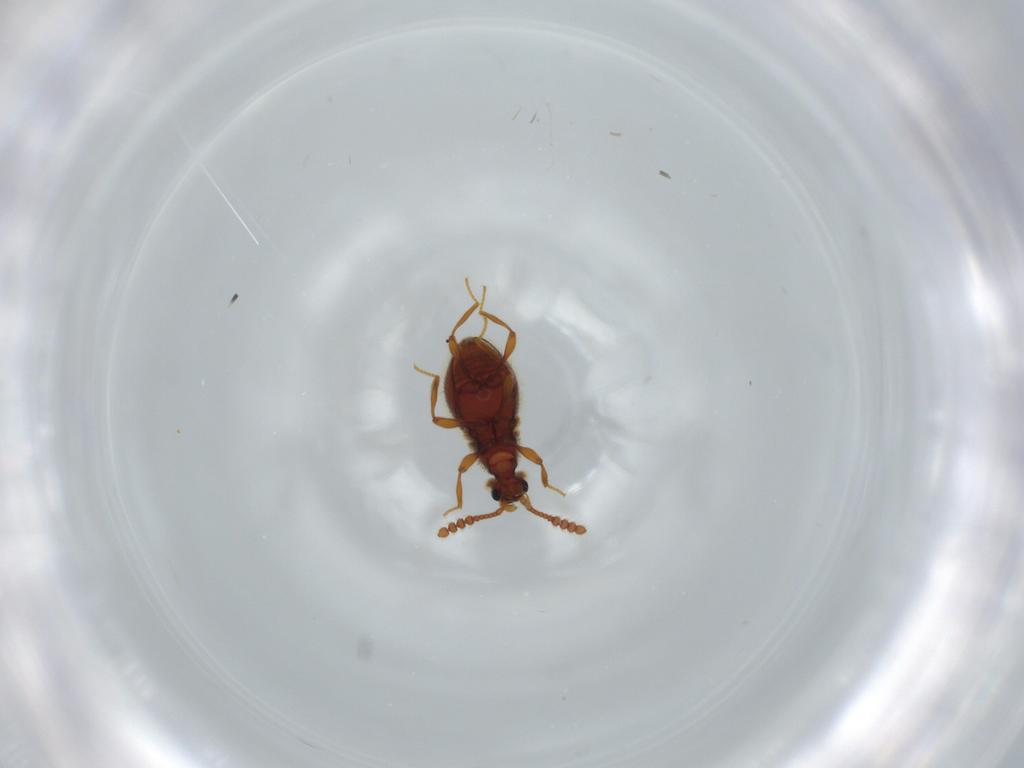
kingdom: Animalia
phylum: Arthropoda
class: Insecta
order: Coleoptera
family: Staphylinidae
